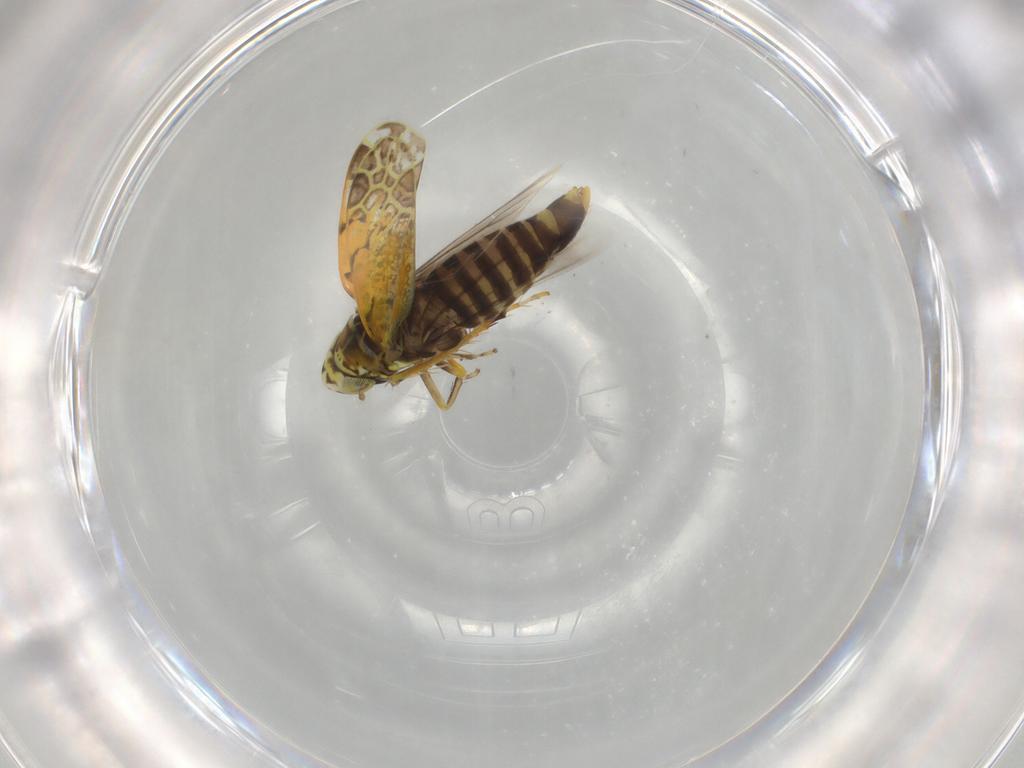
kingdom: Animalia
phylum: Arthropoda
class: Insecta
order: Hemiptera
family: Cicadellidae
